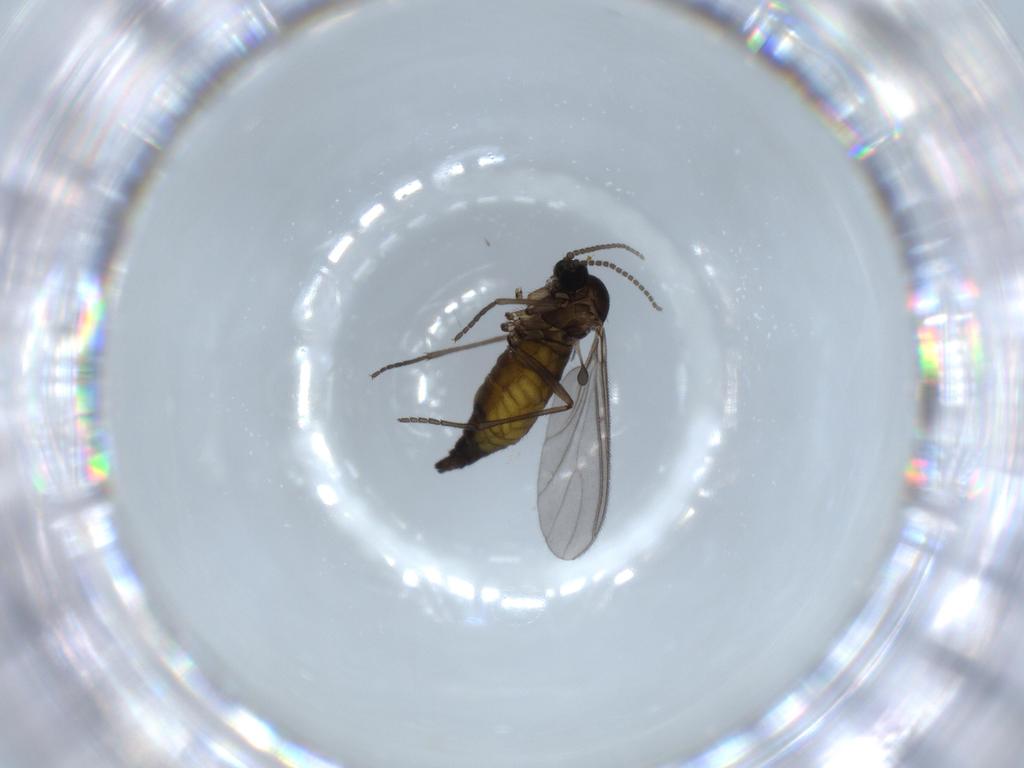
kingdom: Animalia
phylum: Arthropoda
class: Insecta
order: Diptera
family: Sciaridae
